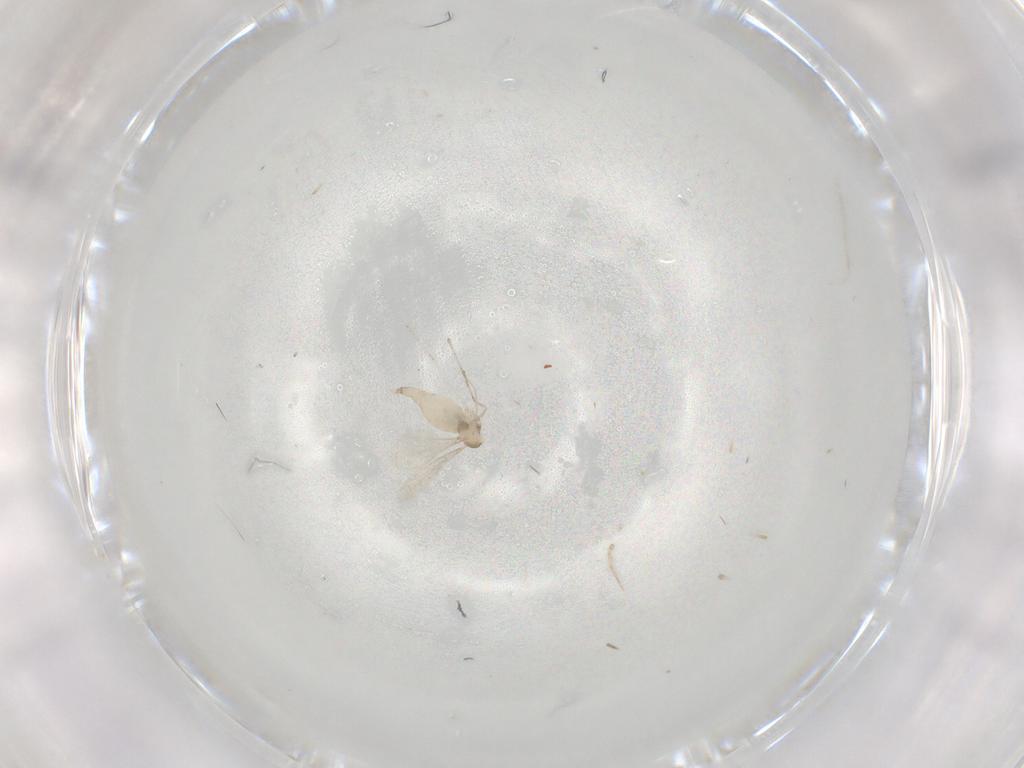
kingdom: Animalia
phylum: Arthropoda
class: Insecta
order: Diptera
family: Cecidomyiidae
